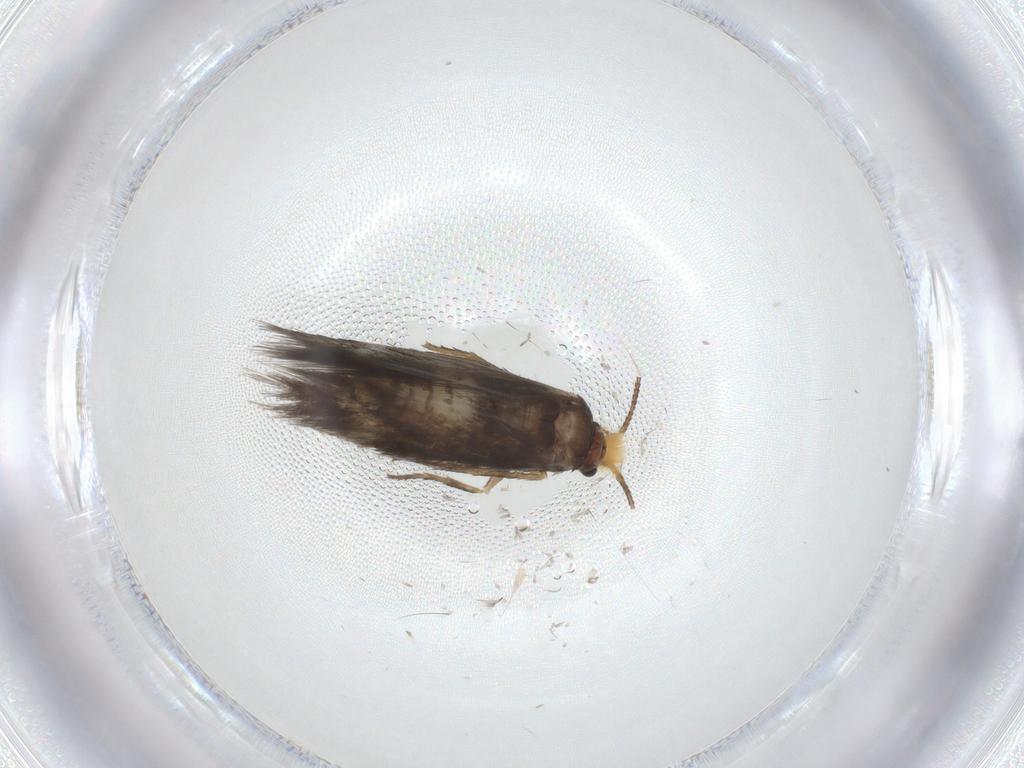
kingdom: Animalia
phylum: Arthropoda
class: Insecta
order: Lepidoptera
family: Nepticulidae
